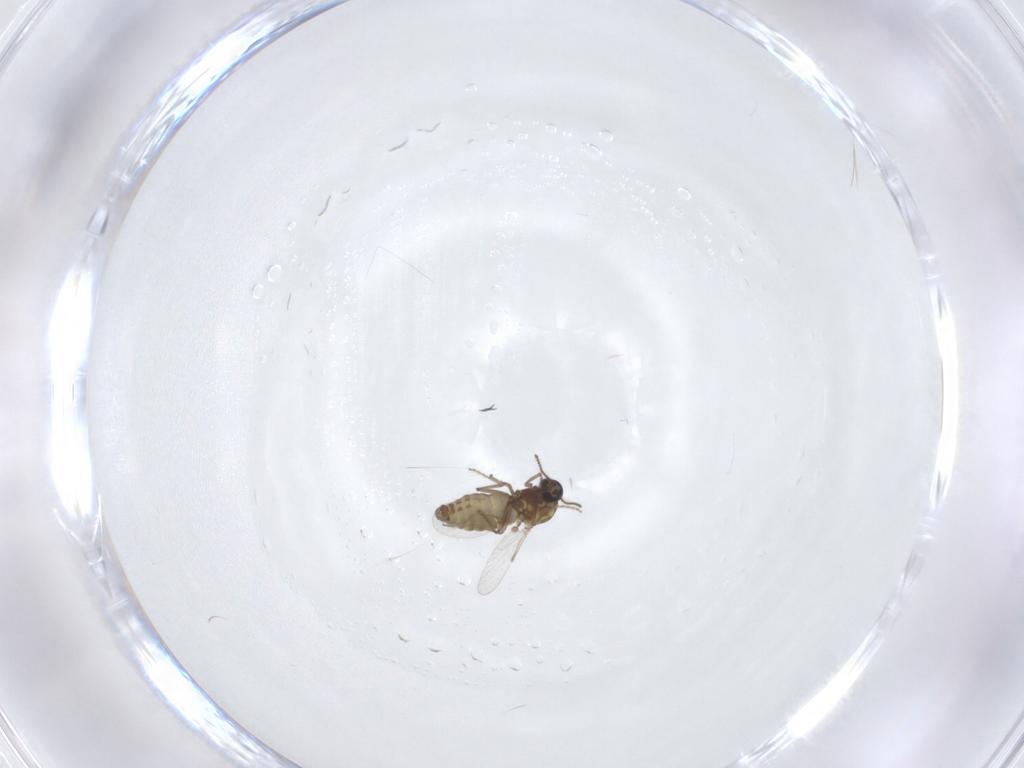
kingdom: Animalia
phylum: Arthropoda
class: Insecta
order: Diptera
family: Ceratopogonidae
